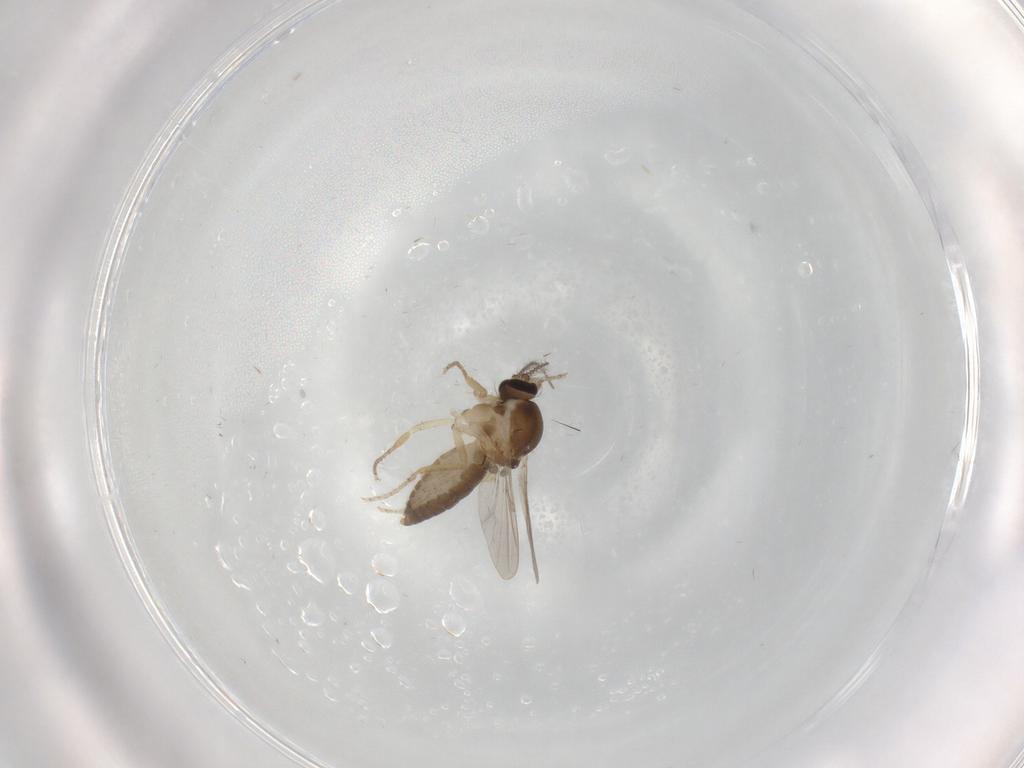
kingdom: Animalia
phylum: Arthropoda
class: Insecta
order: Diptera
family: Ceratopogonidae
